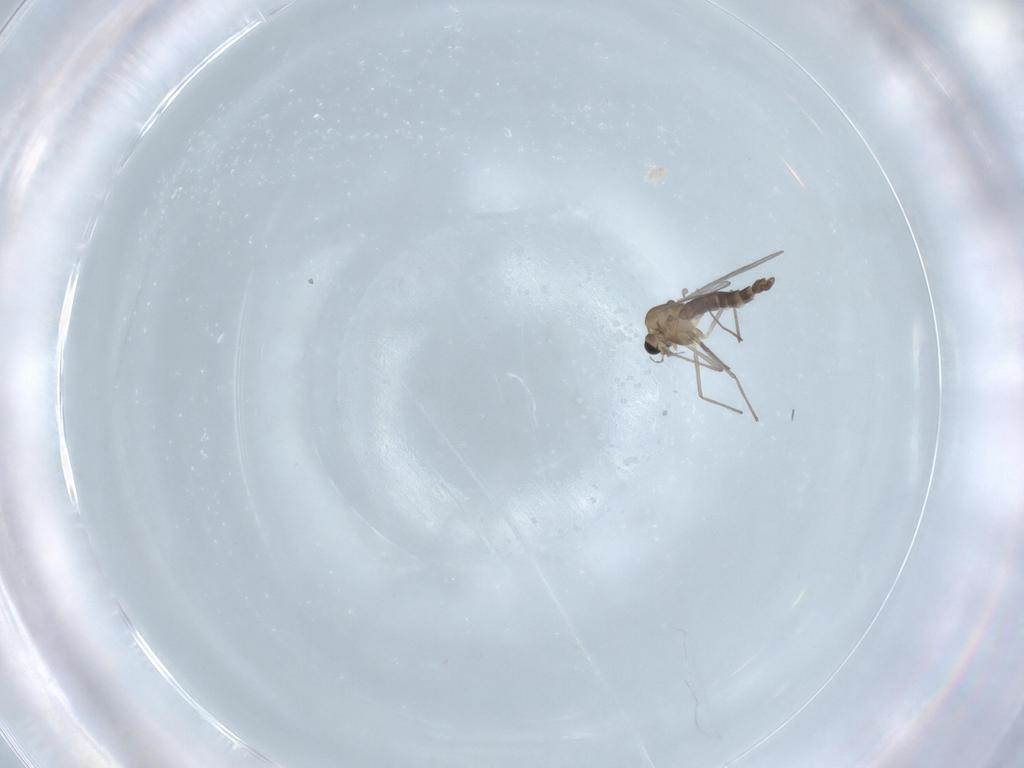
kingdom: Animalia
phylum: Arthropoda
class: Insecta
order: Diptera
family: Chironomidae
